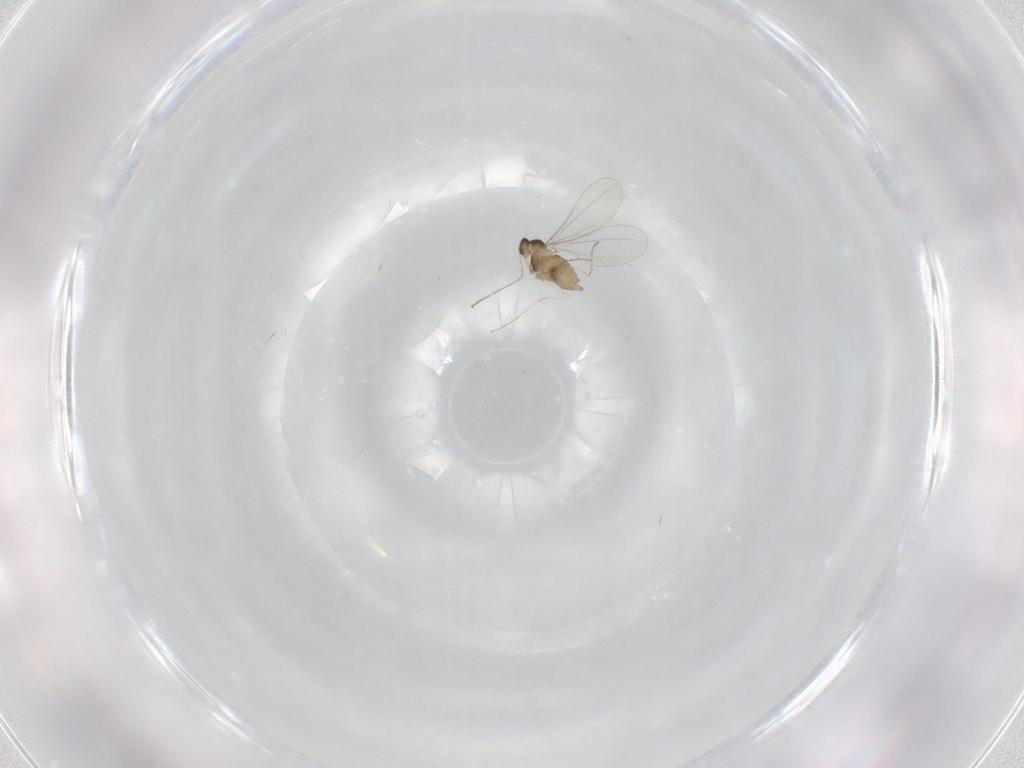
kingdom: Animalia
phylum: Arthropoda
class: Insecta
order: Diptera
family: Cecidomyiidae
